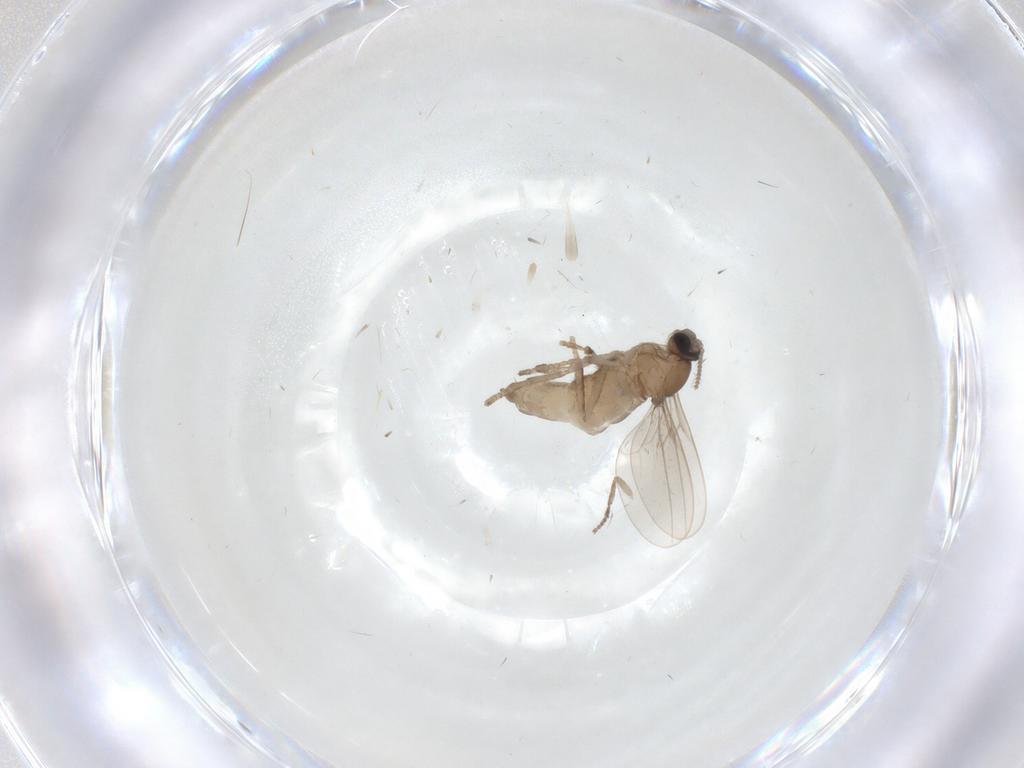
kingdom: Animalia
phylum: Arthropoda
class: Insecta
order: Diptera
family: Cecidomyiidae
